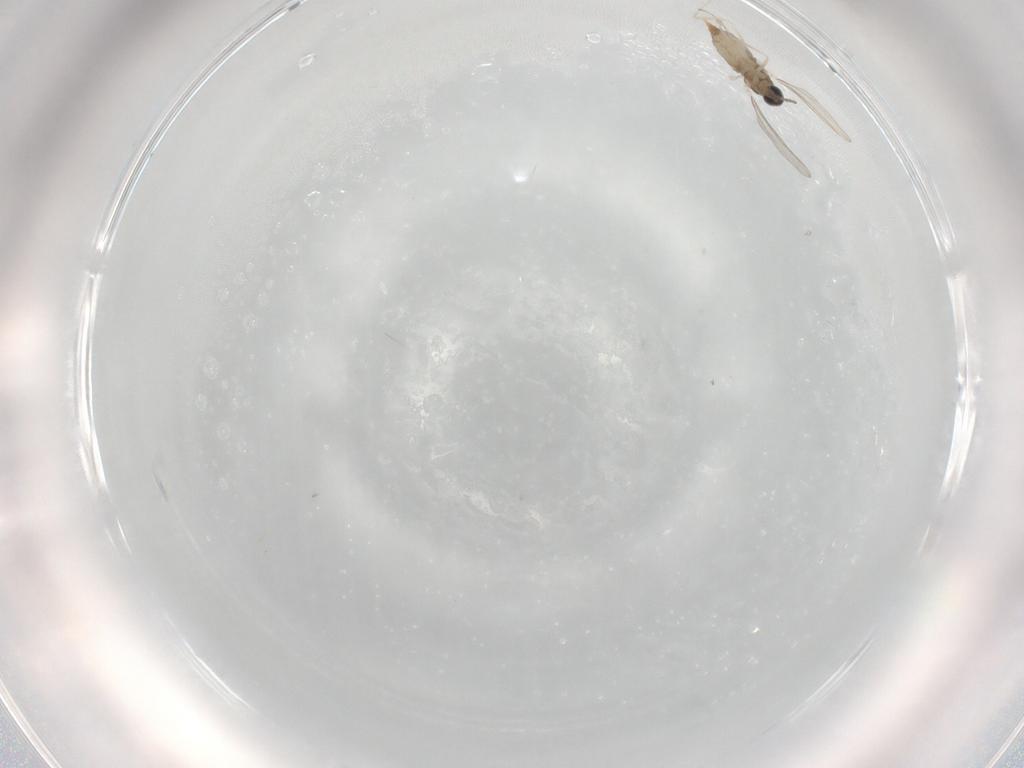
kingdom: Animalia
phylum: Arthropoda
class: Insecta
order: Diptera
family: Cecidomyiidae
